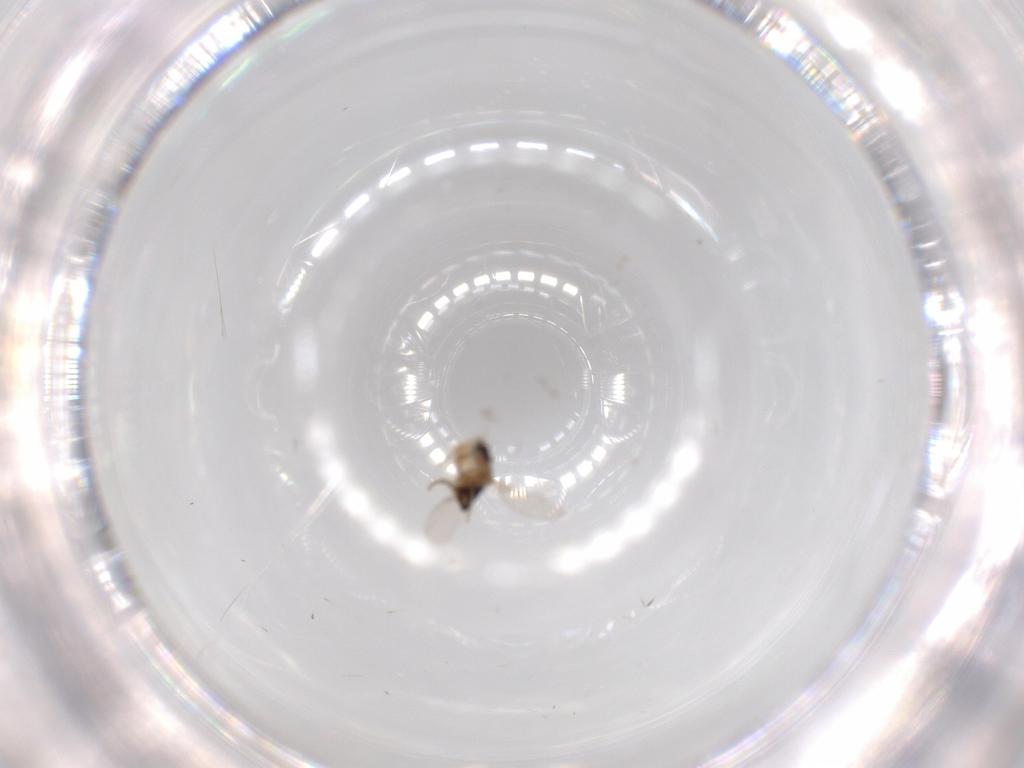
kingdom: Animalia
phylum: Arthropoda
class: Insecta
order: Diptera
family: Phoridae
